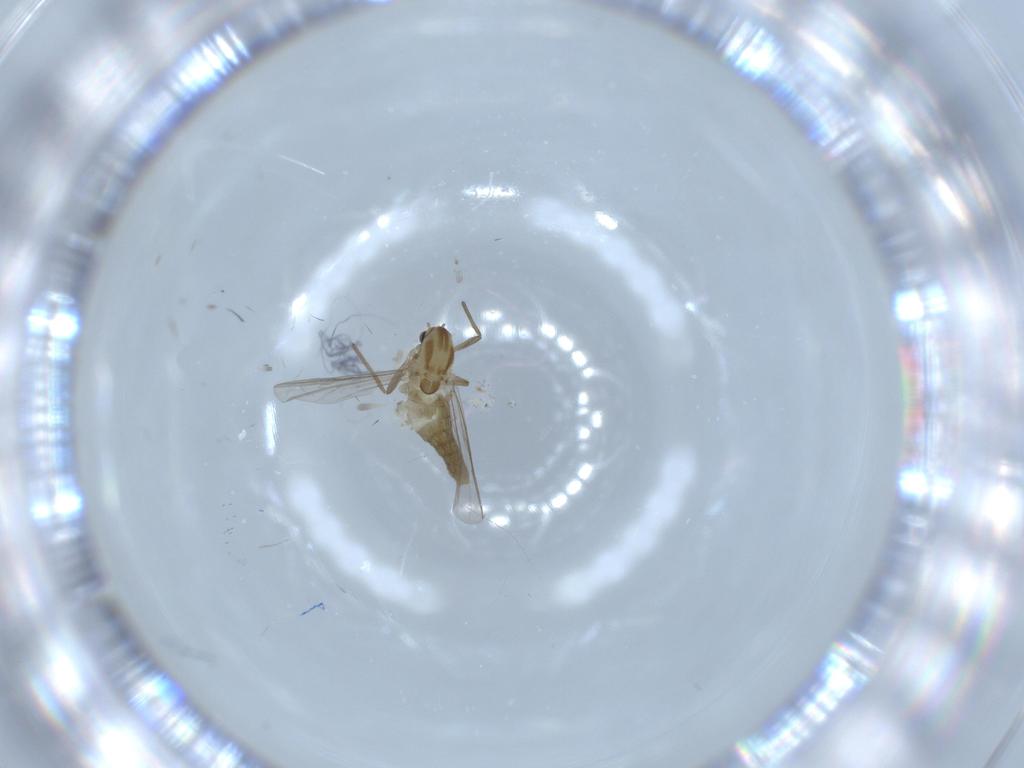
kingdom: Animalia
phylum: Arthropoda
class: Insecta
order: Diptera
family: Chironomidae
